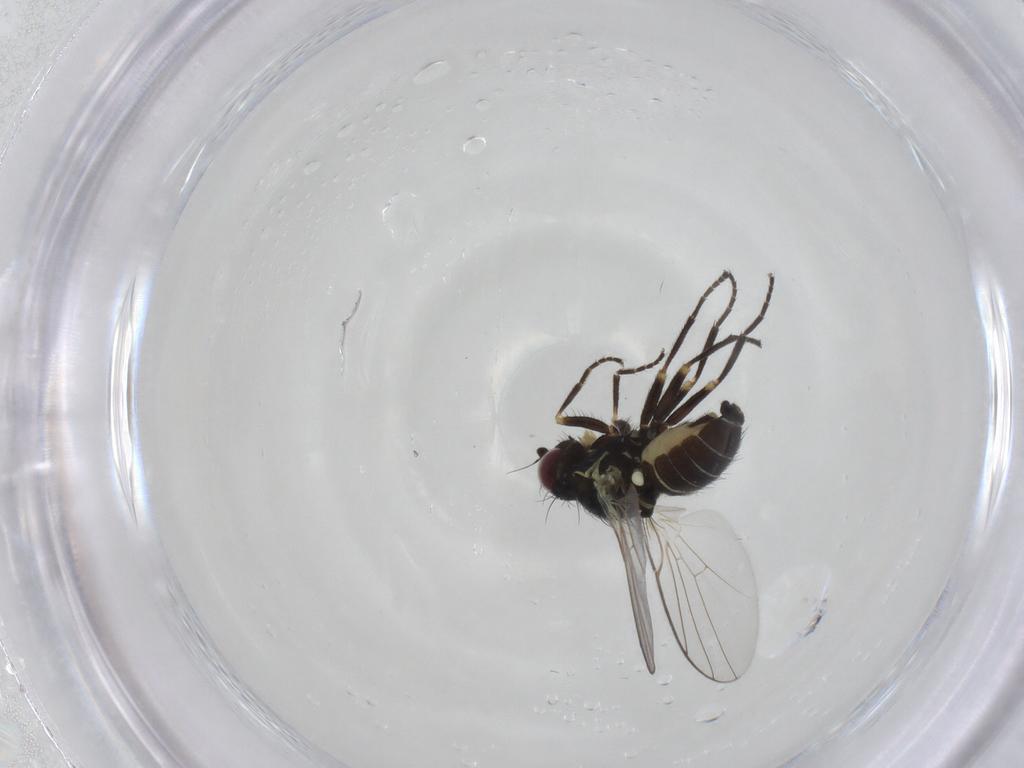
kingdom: Animalia
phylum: Arthropoda
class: Insecta
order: Diptera
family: Agromyzidae
